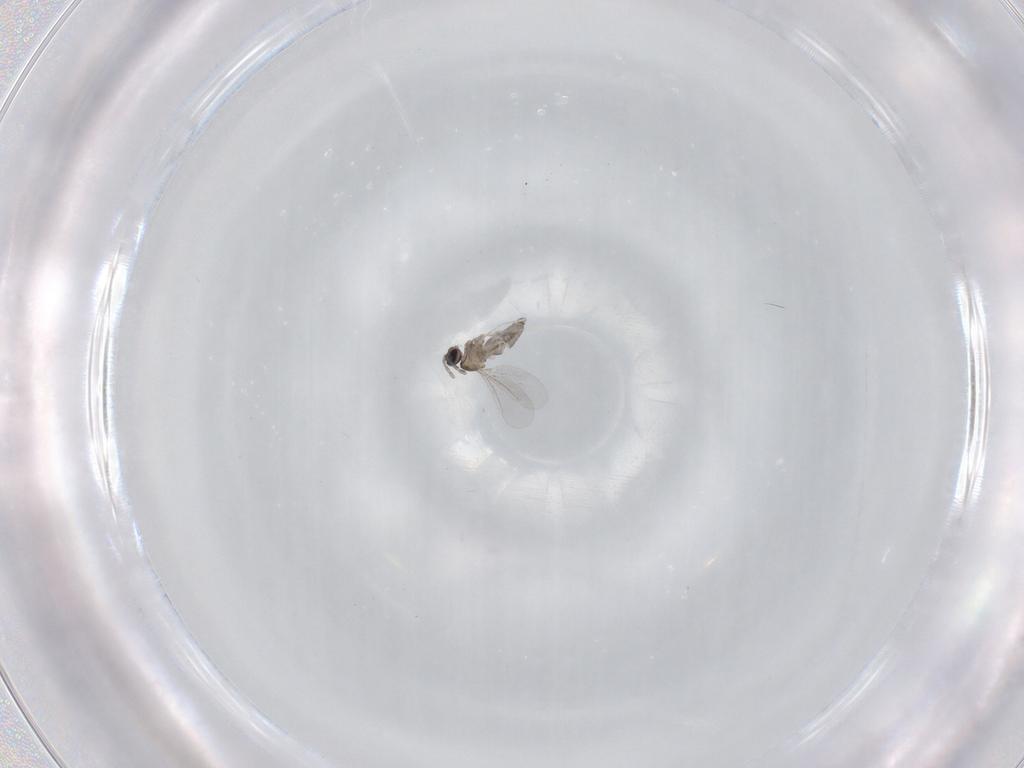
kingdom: Animalia
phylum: Arthropoda
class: Insecta
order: Diptera
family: Cecidomyiidae
